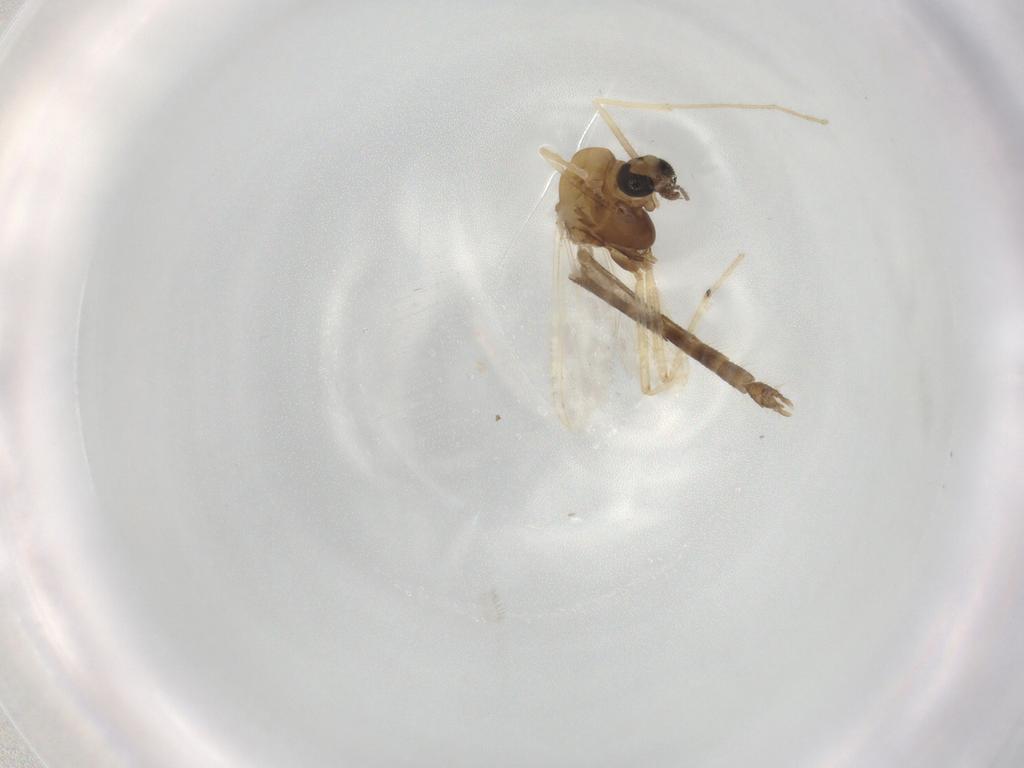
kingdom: Animalia
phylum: Arthropoda
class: Insecta
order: Diptera
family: Chironomidae
